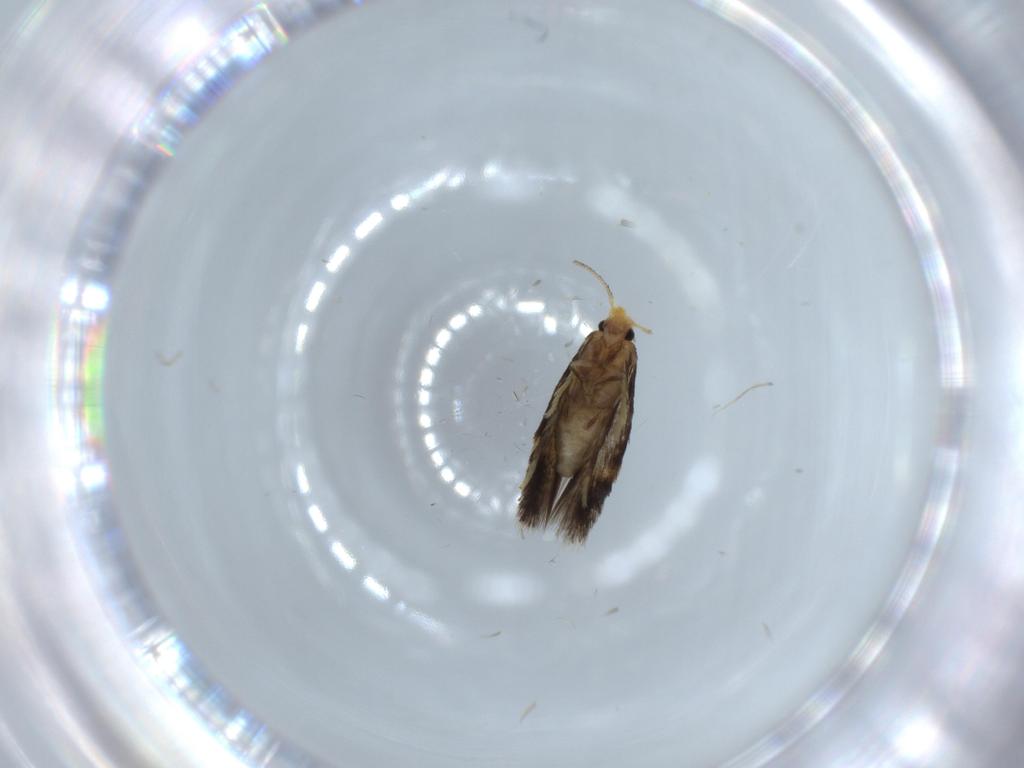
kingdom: Animalia
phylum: Arthropoda
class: Insecta
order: Lepidoptera
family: Nepticulidae
